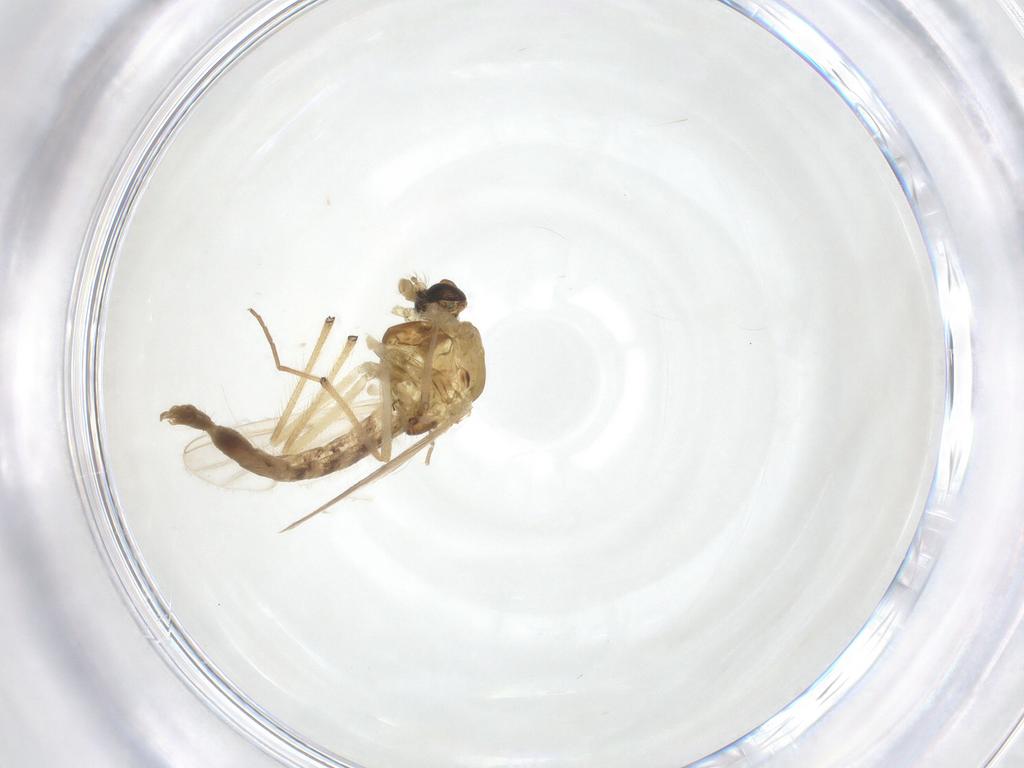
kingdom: Animalia
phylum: Arthropoda
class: Insecta
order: Diptera
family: Chironomidae
